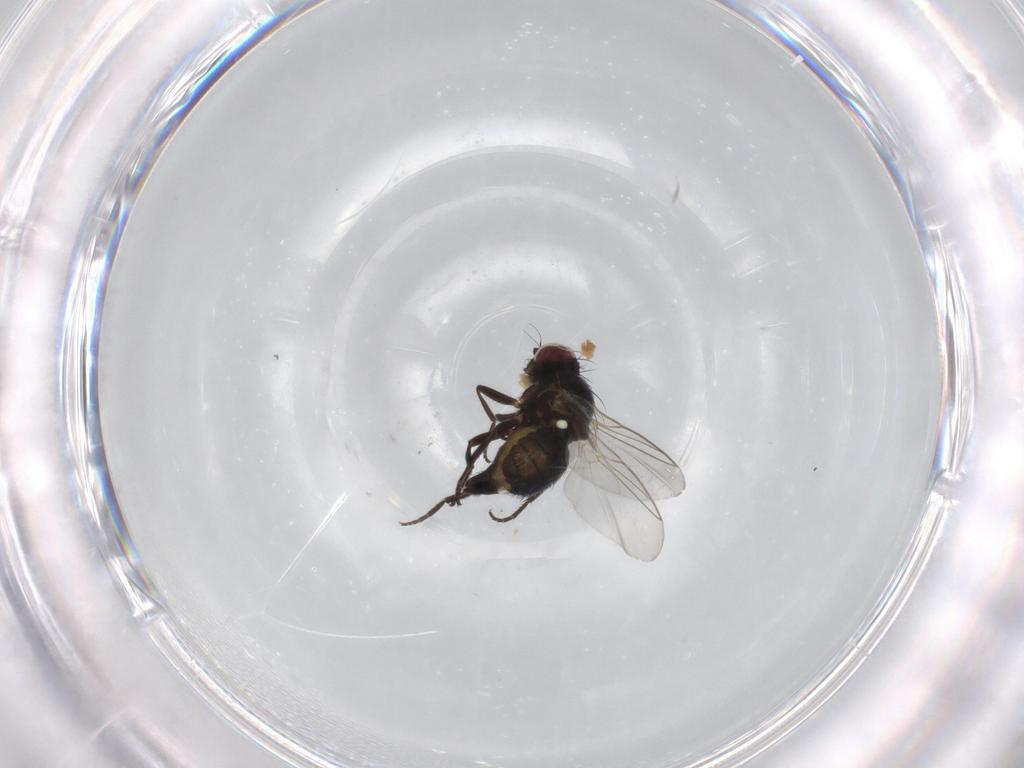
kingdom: Animalia
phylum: Arthropoda
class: Insecta
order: Diptera
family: Agromyzidae
